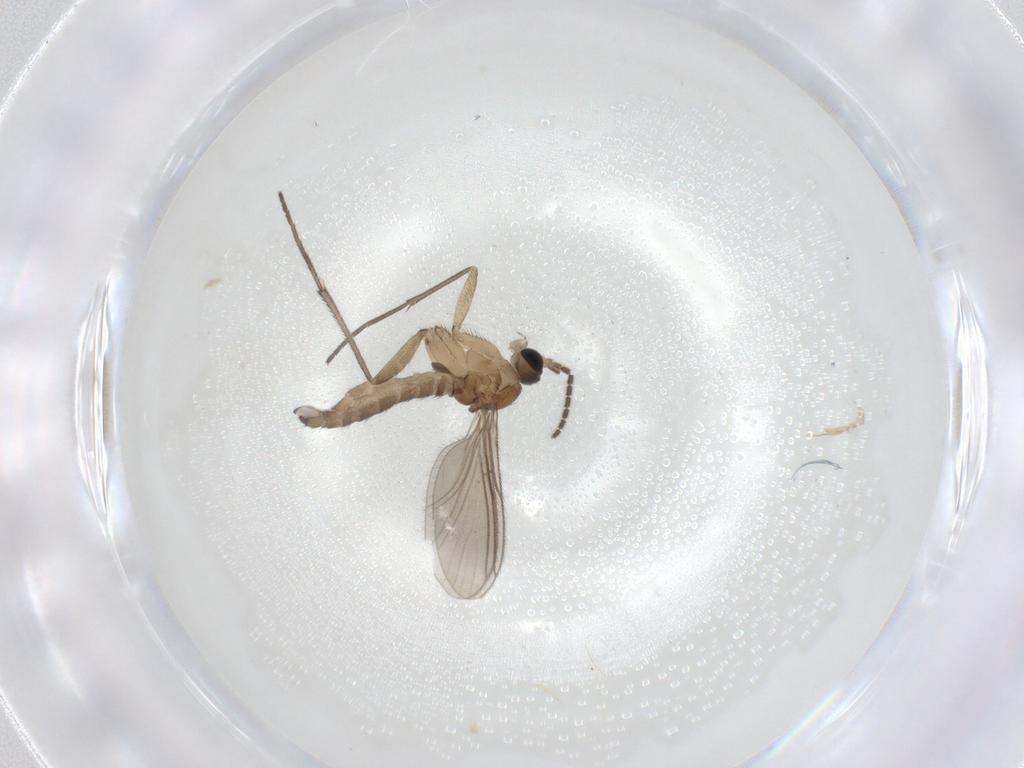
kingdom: Animalia
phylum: Arthropoda
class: Insecta
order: Diptera
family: Sciaridae
